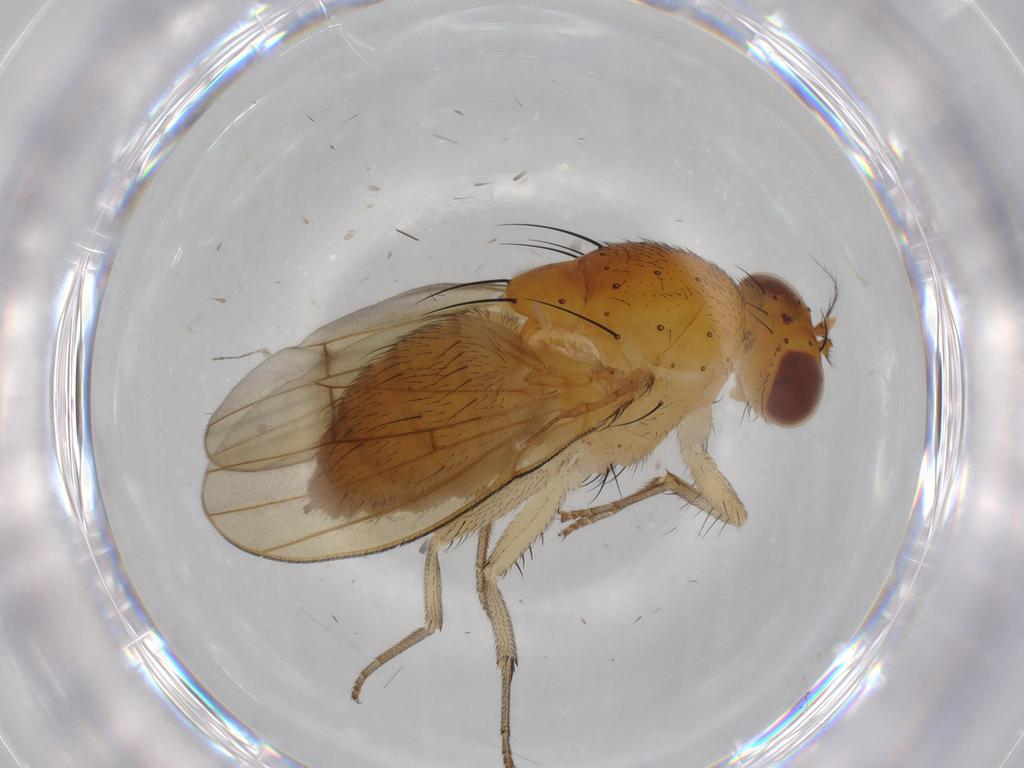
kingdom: Animalia
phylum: Arthropoda
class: Insecta
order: Diptera
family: Lauxaniidae
